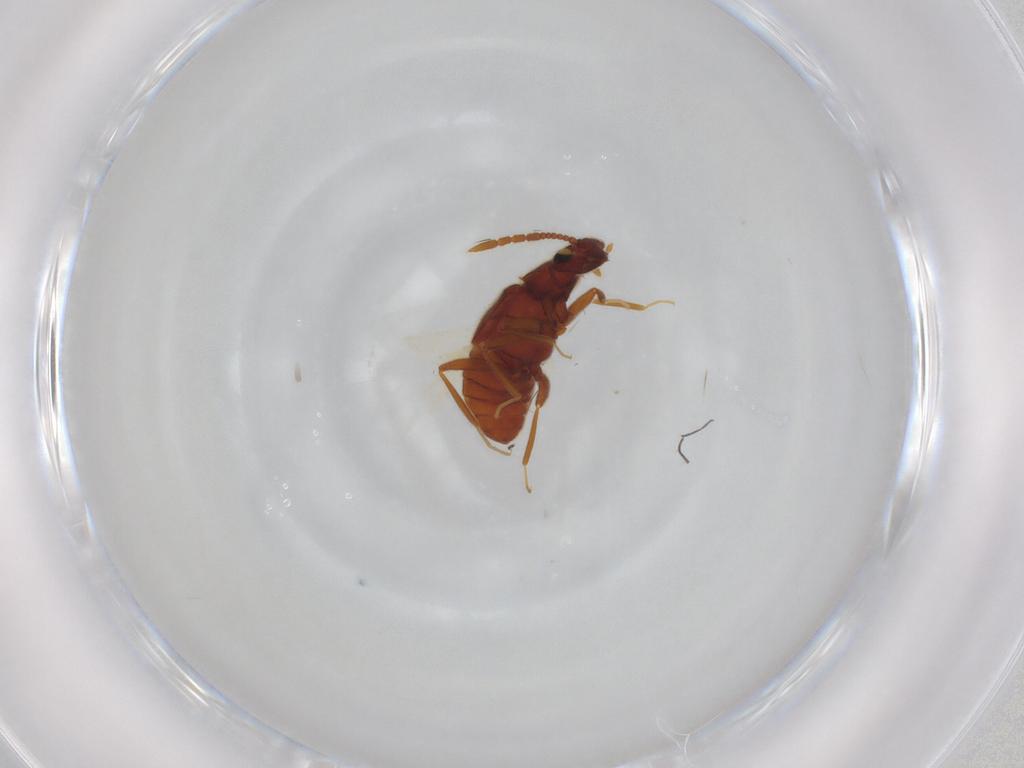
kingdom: Animalia
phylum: Arthropoda
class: Insecta
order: Coleoptera
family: Staphylinidae
